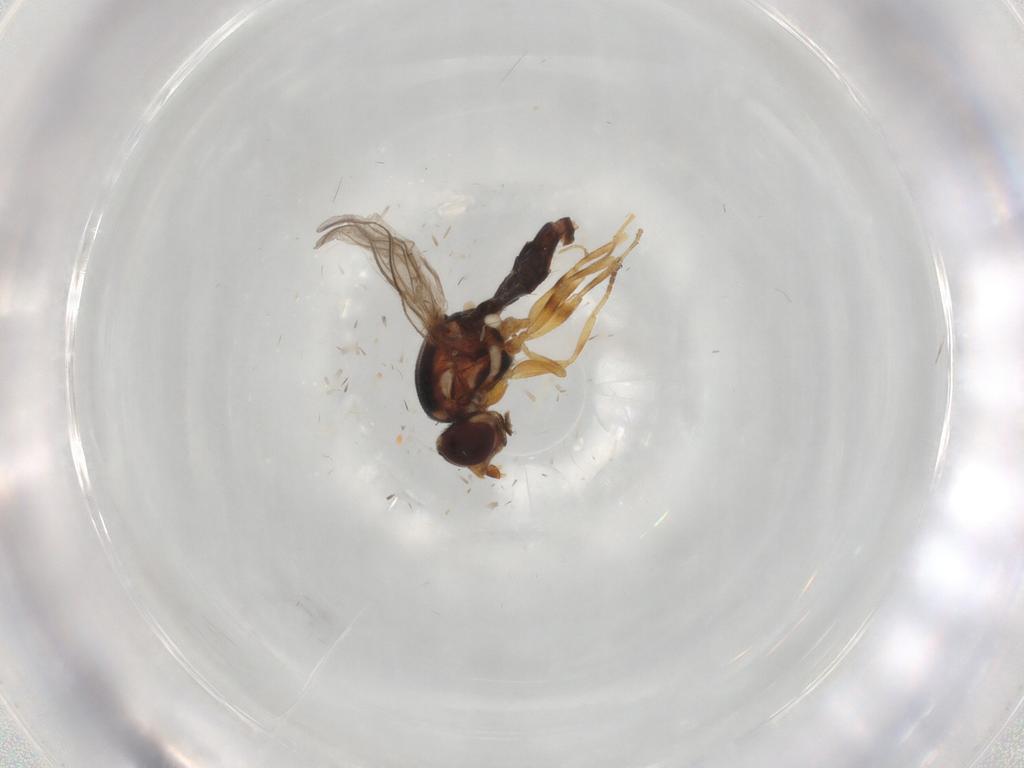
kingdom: Animalia
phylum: Arthropoda
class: Insecta
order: Diptera
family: Chloropidae
